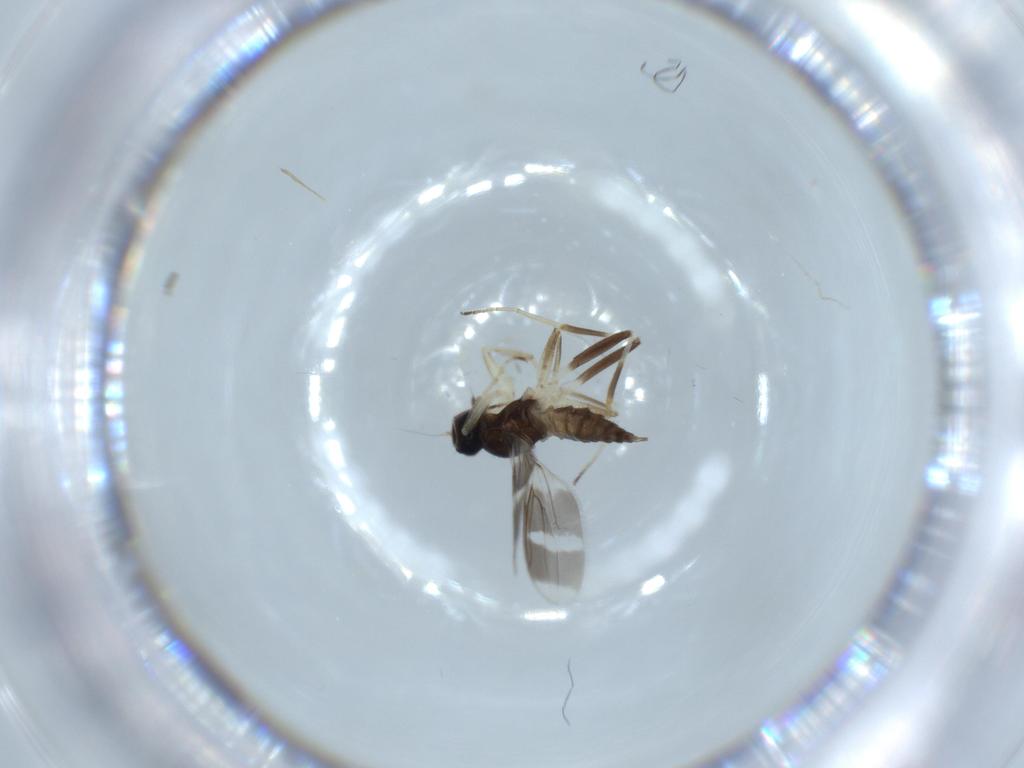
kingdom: Animalia
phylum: Arthropoda
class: Insecta
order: Diptera
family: Hybotidae
